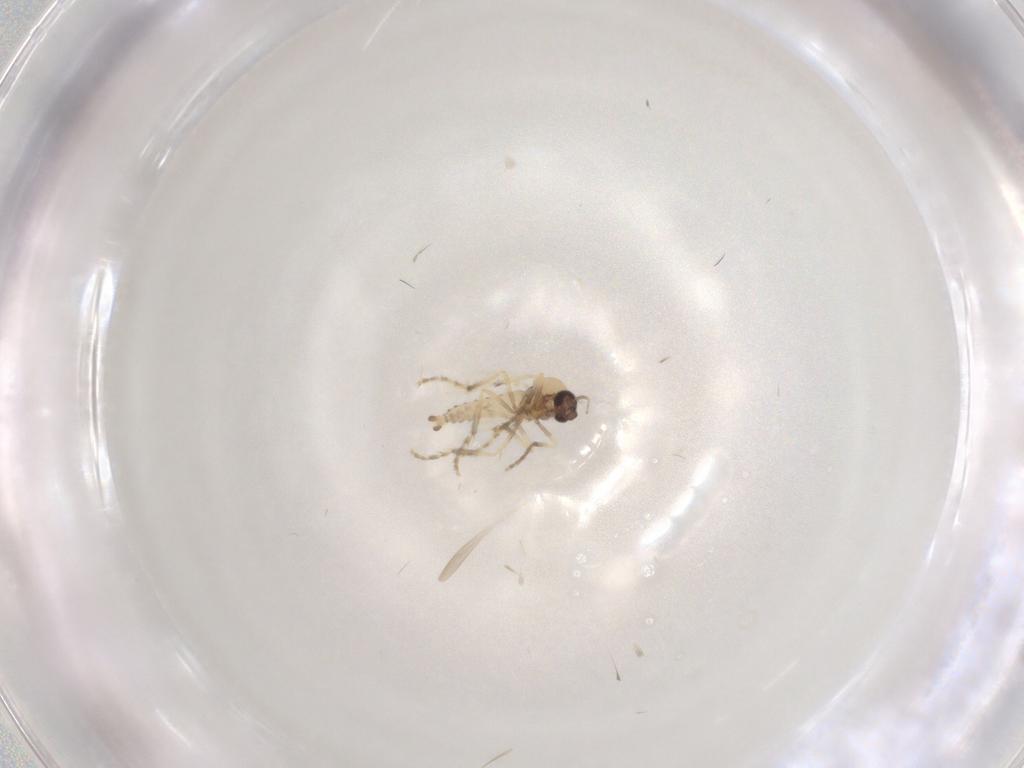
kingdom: Animalia
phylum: Arthropoda
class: Insecta
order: Diptera
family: Ceratopogonidae
